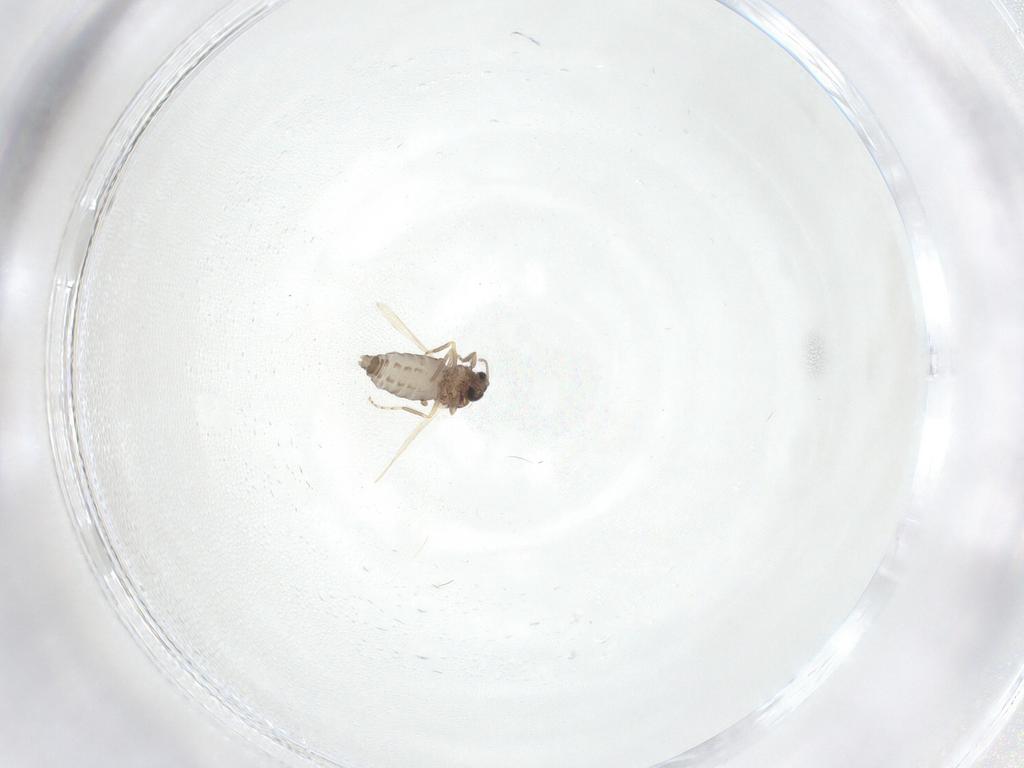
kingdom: Animalia
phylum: Arthropoda
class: Insecta
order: Diptera
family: Ceratopogonidae
